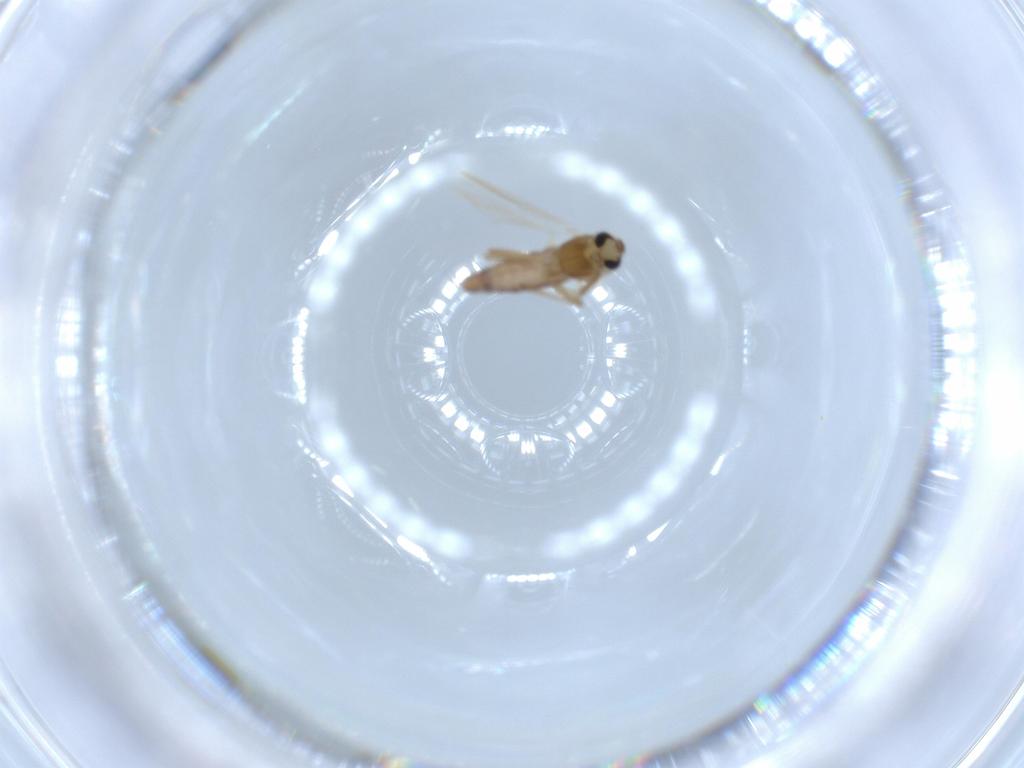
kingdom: Animalia
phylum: Arthropoda
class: Insecta
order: Diptera
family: Chironomidae
